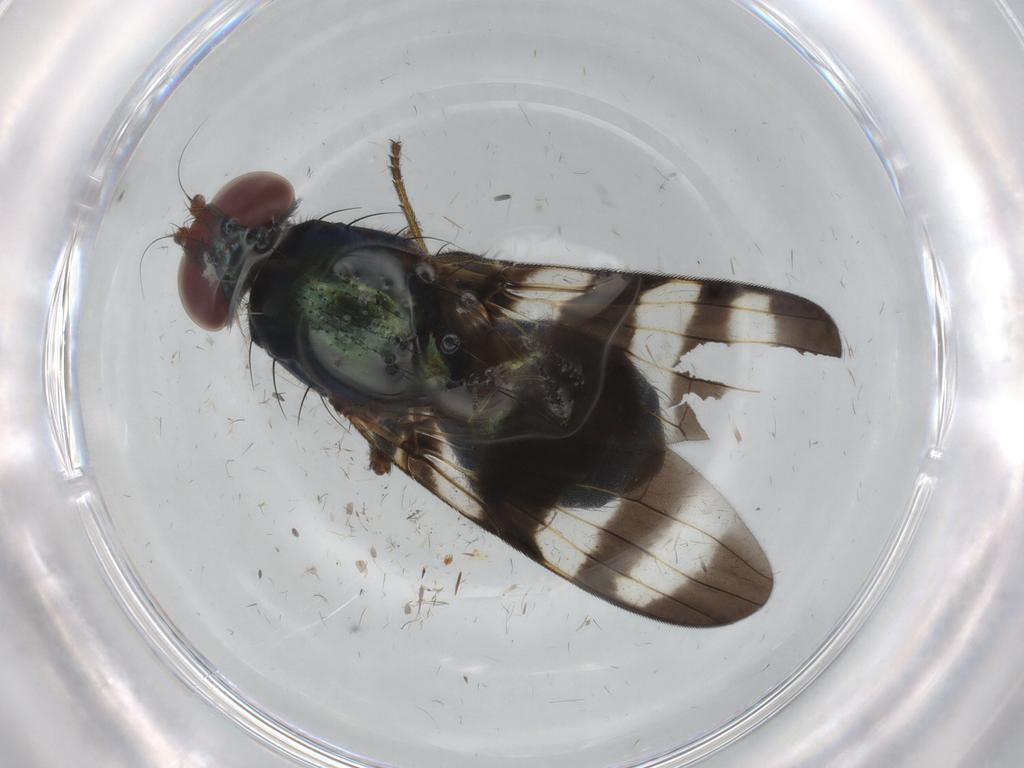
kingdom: Animalia
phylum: Arthropoda
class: Insecta
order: Diptera
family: Ulidiidae
